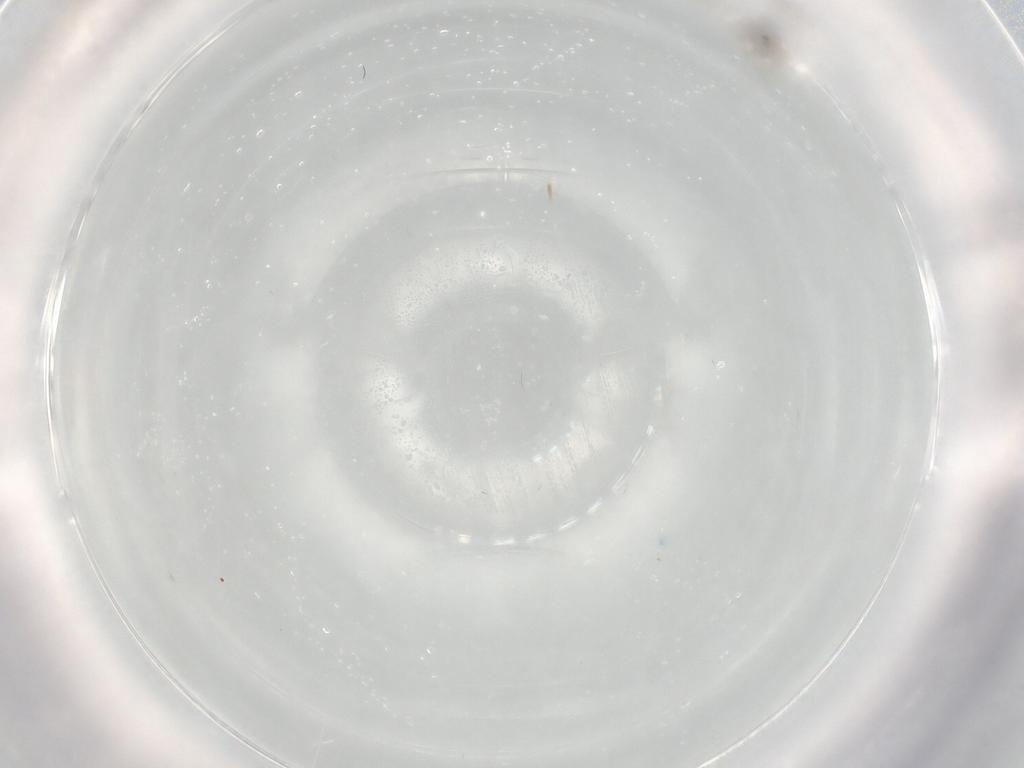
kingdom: Animalia
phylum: Arthropoda
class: Insecta
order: Diptera
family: Cecidomyiidae
